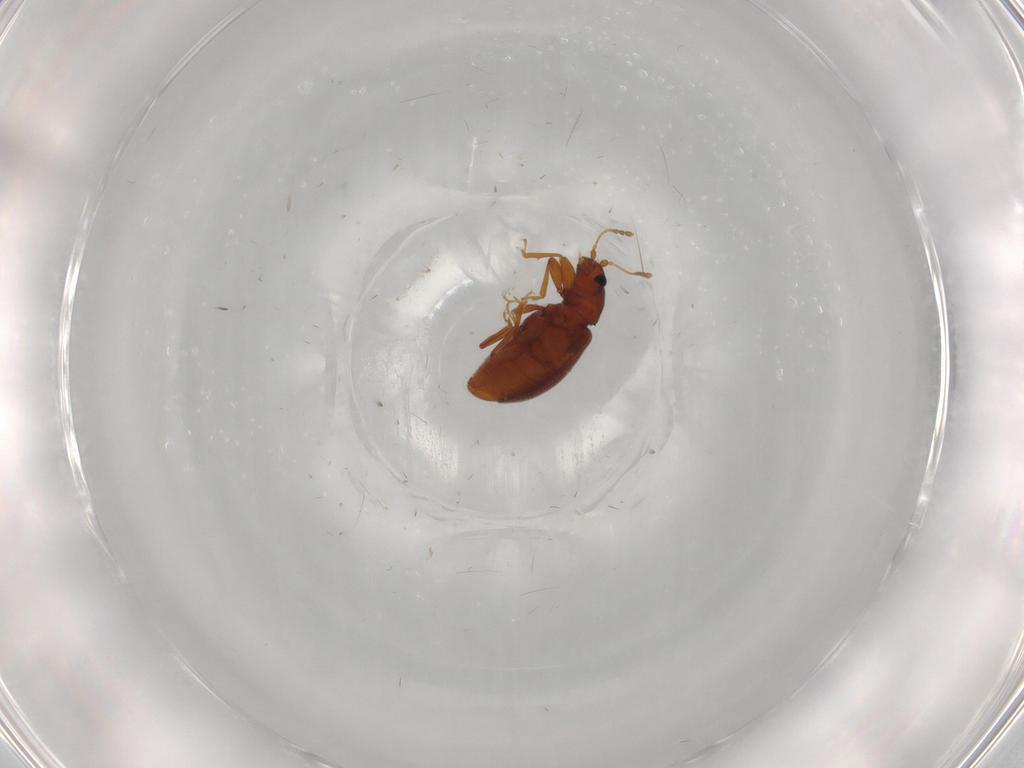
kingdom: Animalia
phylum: Arthropoda
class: Insecta
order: Coleoptera
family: Latridiidae
